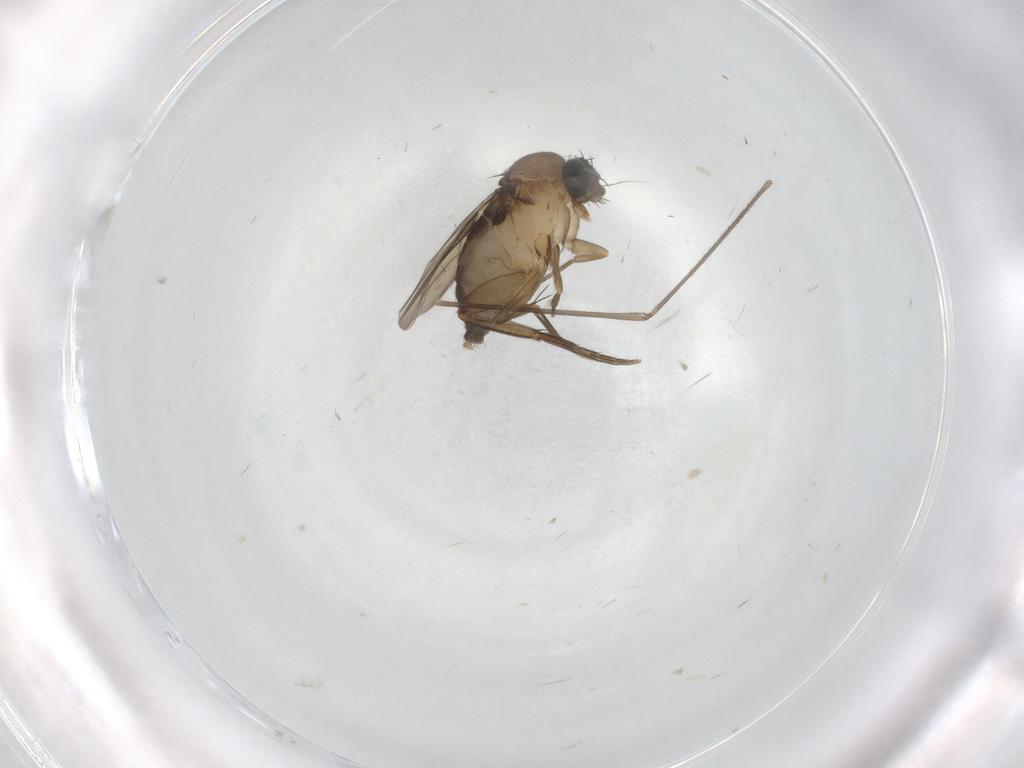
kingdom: Animalia
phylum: Arthropoda
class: Insecta
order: Diptera
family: Phoridae
